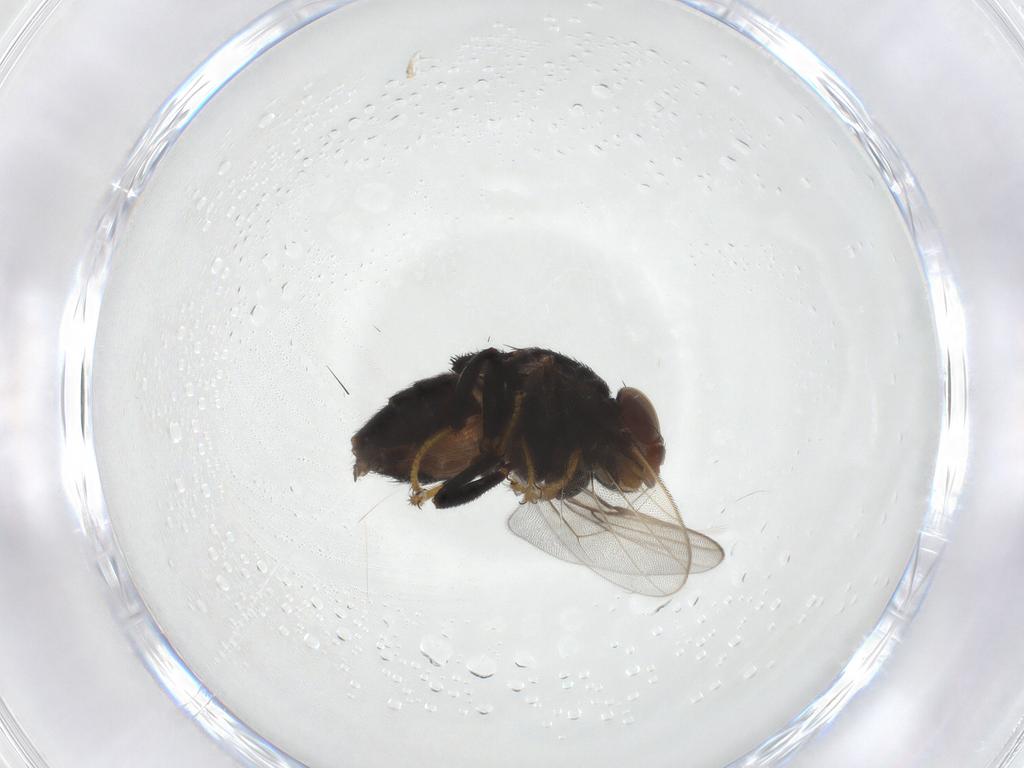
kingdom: Animalia
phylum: Arthropoda
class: Insecta
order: Diptera
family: Chloropidae
